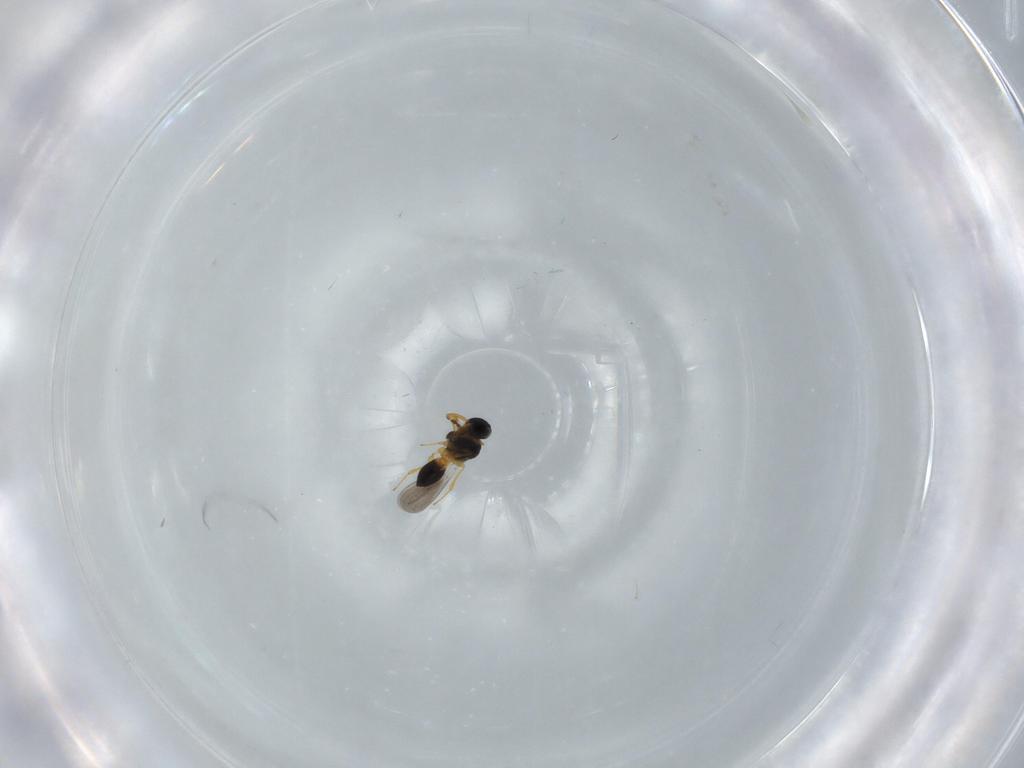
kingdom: Animalia
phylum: Arthropoda
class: Insecta
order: Hymenoptera
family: Platygastridae
